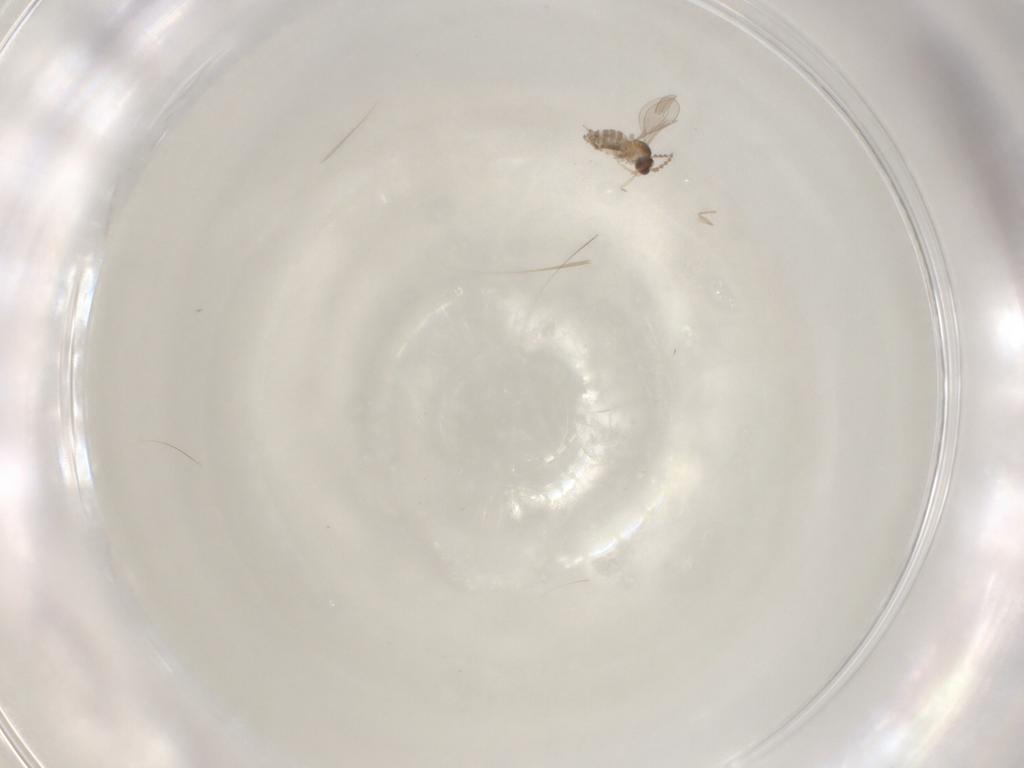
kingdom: Animalia
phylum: Arthropoda
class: Insecta
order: Diptera
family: Cecidomyiidae
